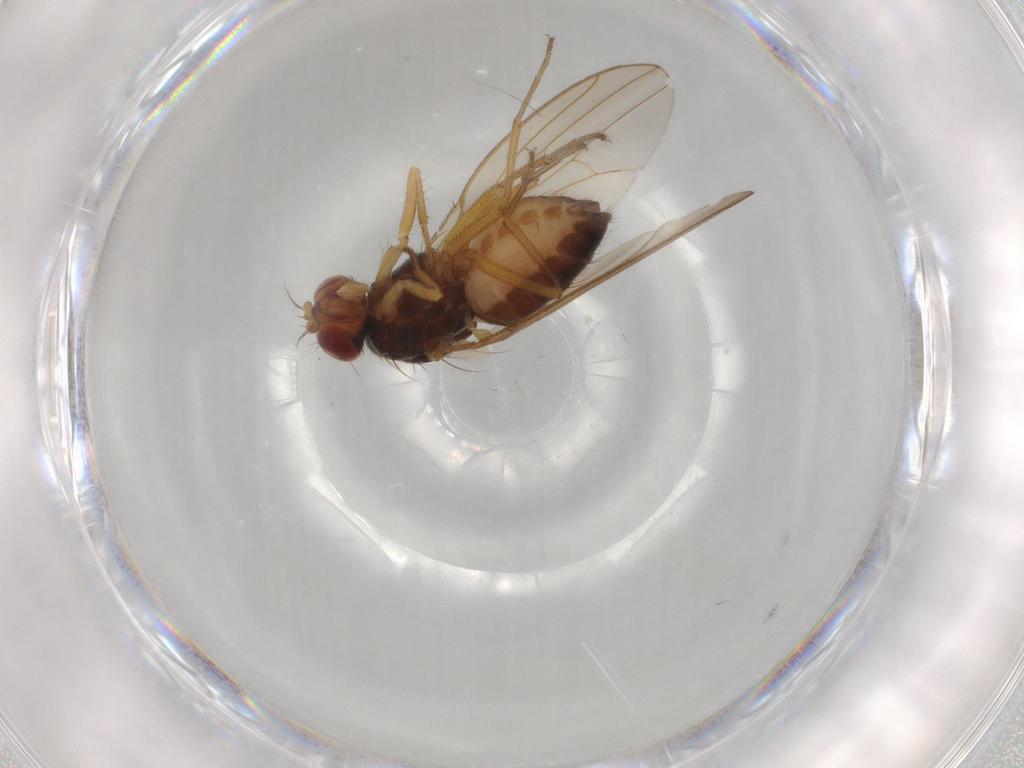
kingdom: Animalia
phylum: Arthropoda
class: Insecta
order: Diptera
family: Drosophilidae
